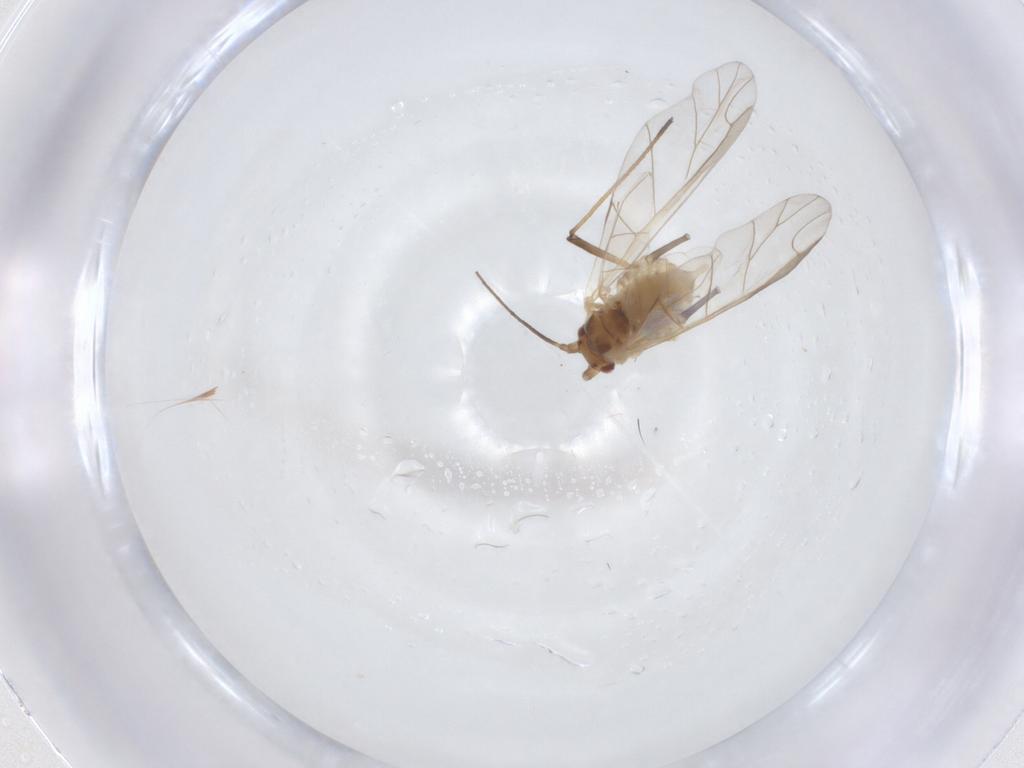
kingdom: Animalia
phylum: Arthropoda
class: Insecta
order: Hemiptera
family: Aphididae
